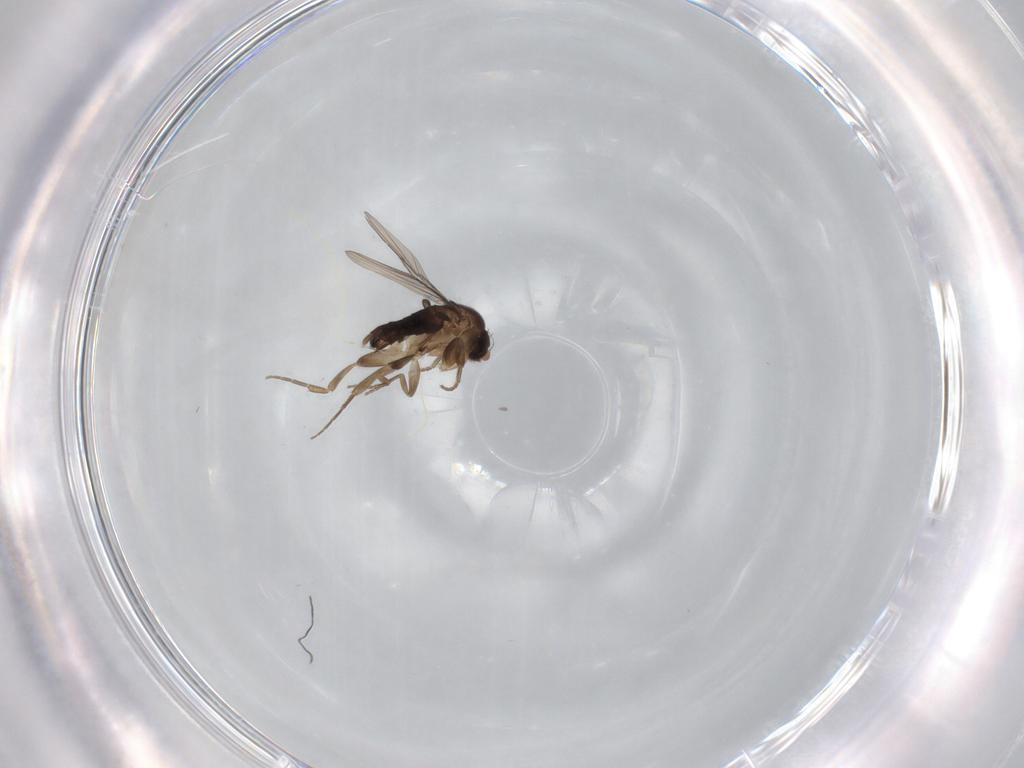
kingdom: Animalia
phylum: Arthropoda
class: Insecta
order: Diptera
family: Phoridae
